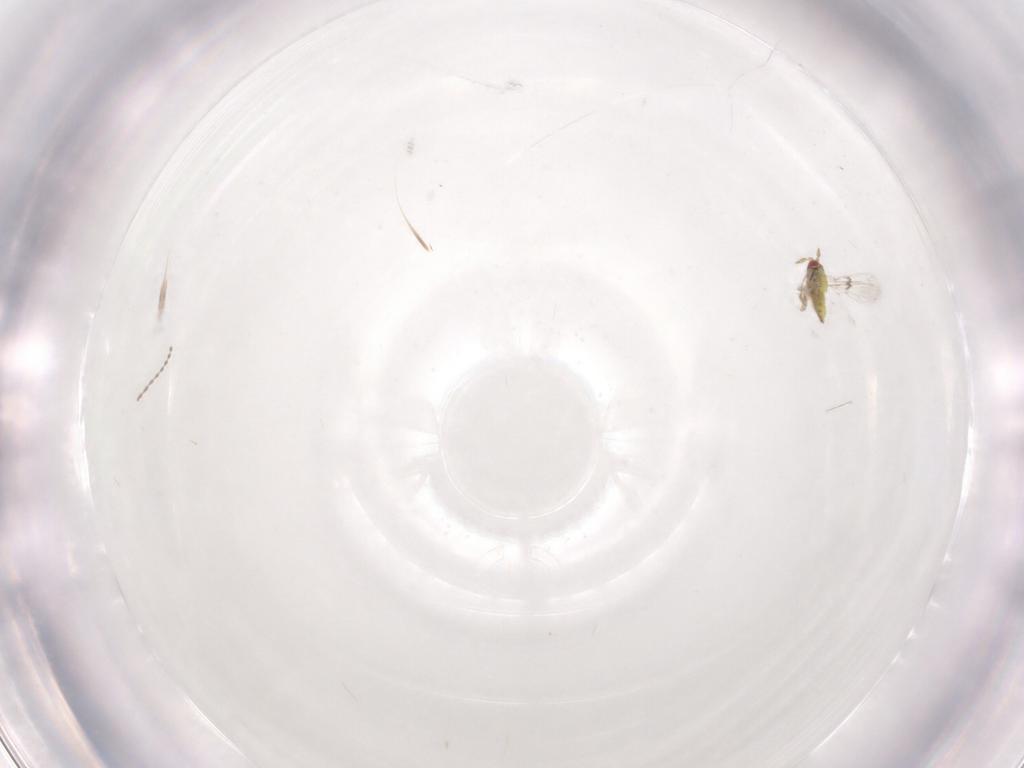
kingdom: Animalia
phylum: Arthropoda
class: Insecta
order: Hymenoptera
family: Trichogrammatidae
